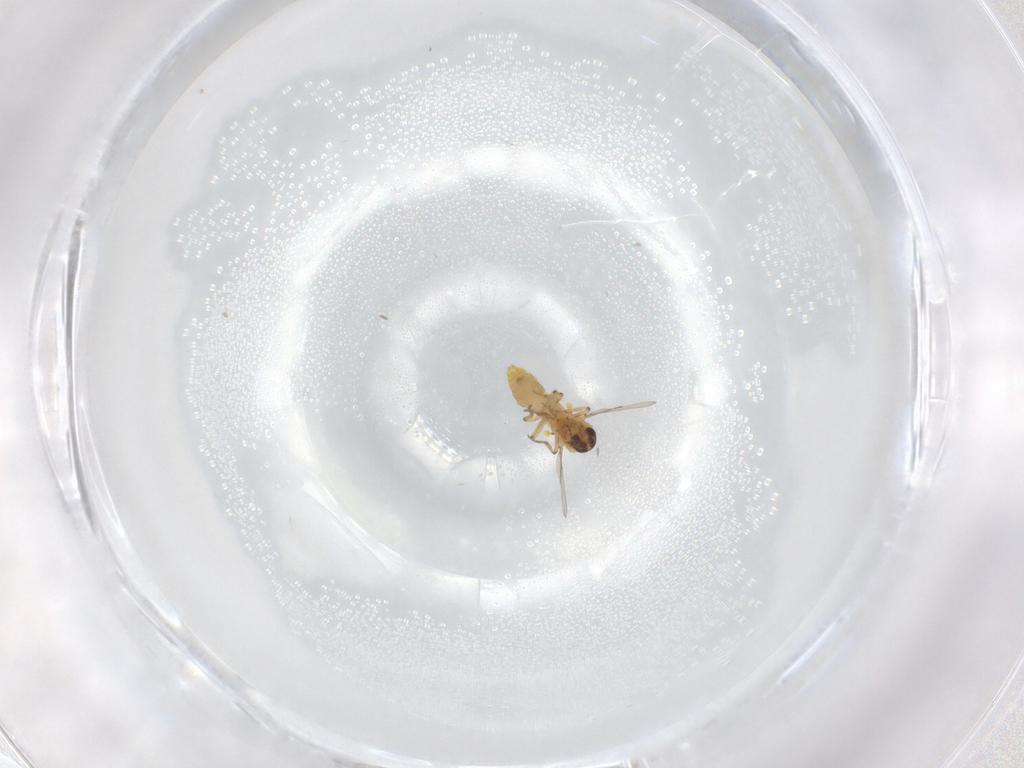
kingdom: Animalia
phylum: Arthropoda
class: Insecta
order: Diptera
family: Ceratopogonidae
